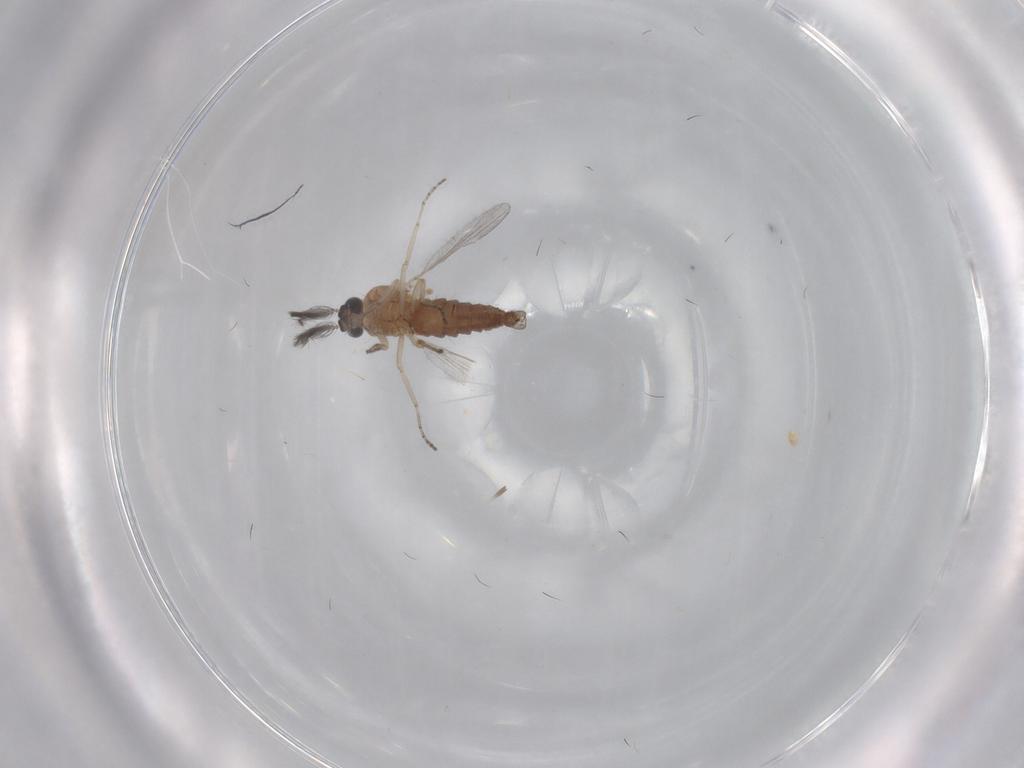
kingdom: Animalia
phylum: Arthropoda
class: Insecta
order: Diptera
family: Ceratopogonidae
